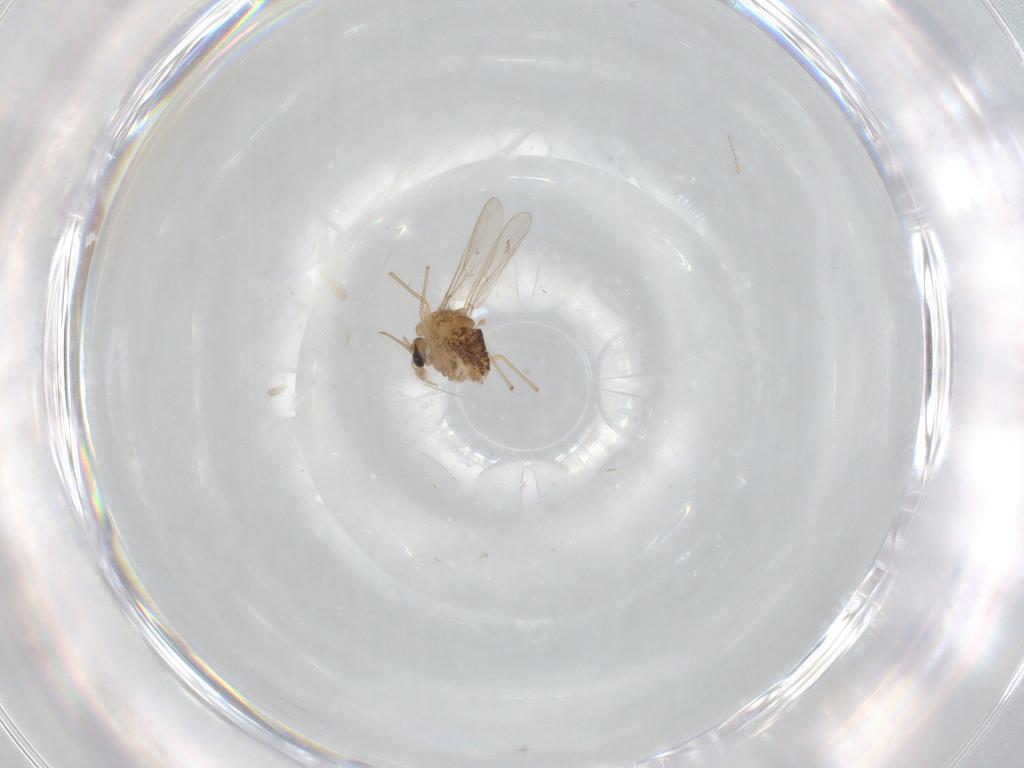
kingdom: Animalia
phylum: Arthropoda
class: Insecta
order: Diptera
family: Chironomidae
